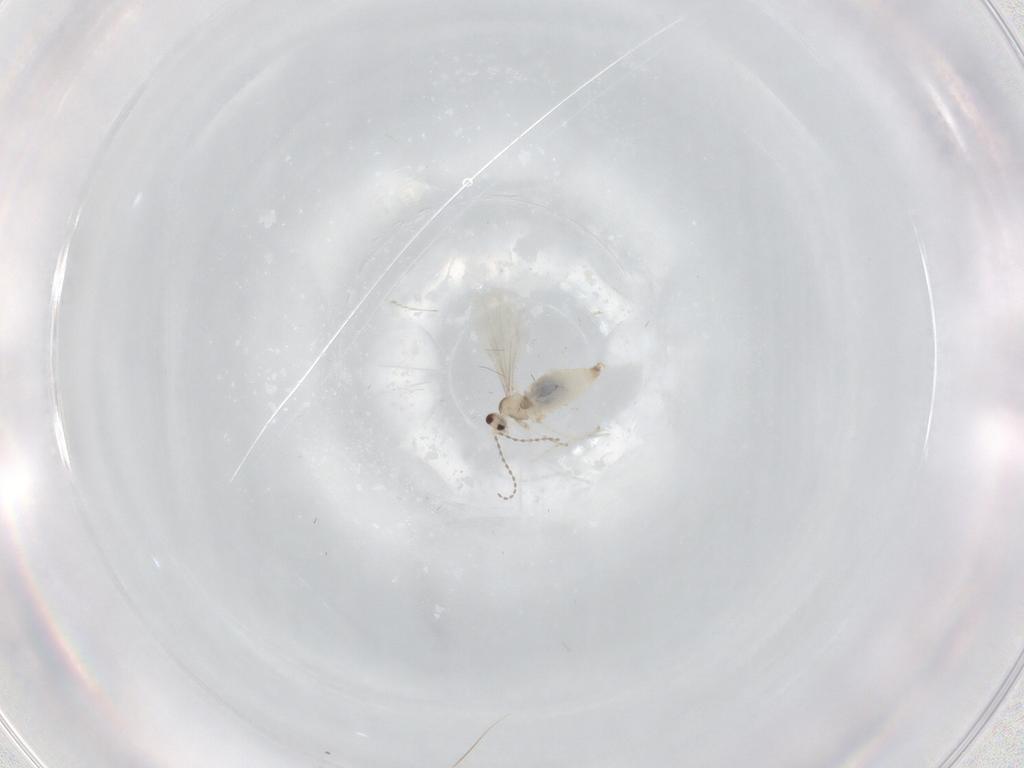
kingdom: Animalia
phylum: Arthropoda
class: Insecta
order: Diptera
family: Cecidomyiidae
